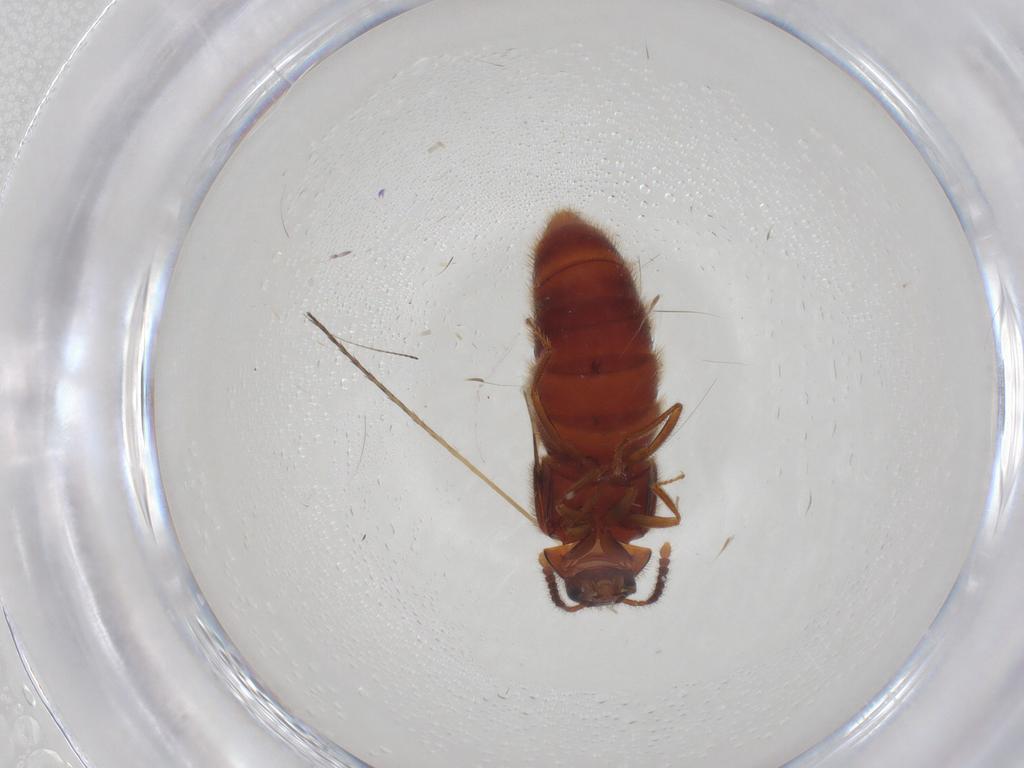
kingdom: Animalia
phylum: Arthropoda
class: Insecta
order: Coleoptera
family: Staphylinidae
